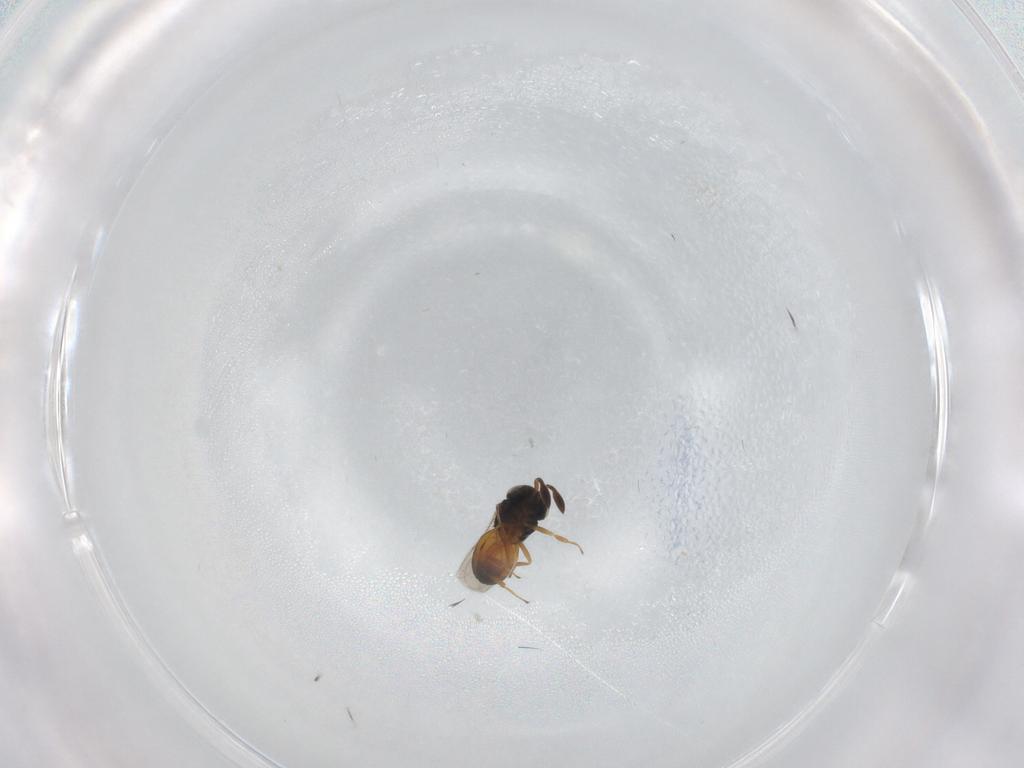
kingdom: Animalia
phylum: Arthropoda
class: Insecta
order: Hymenoptera
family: Scelionidae
